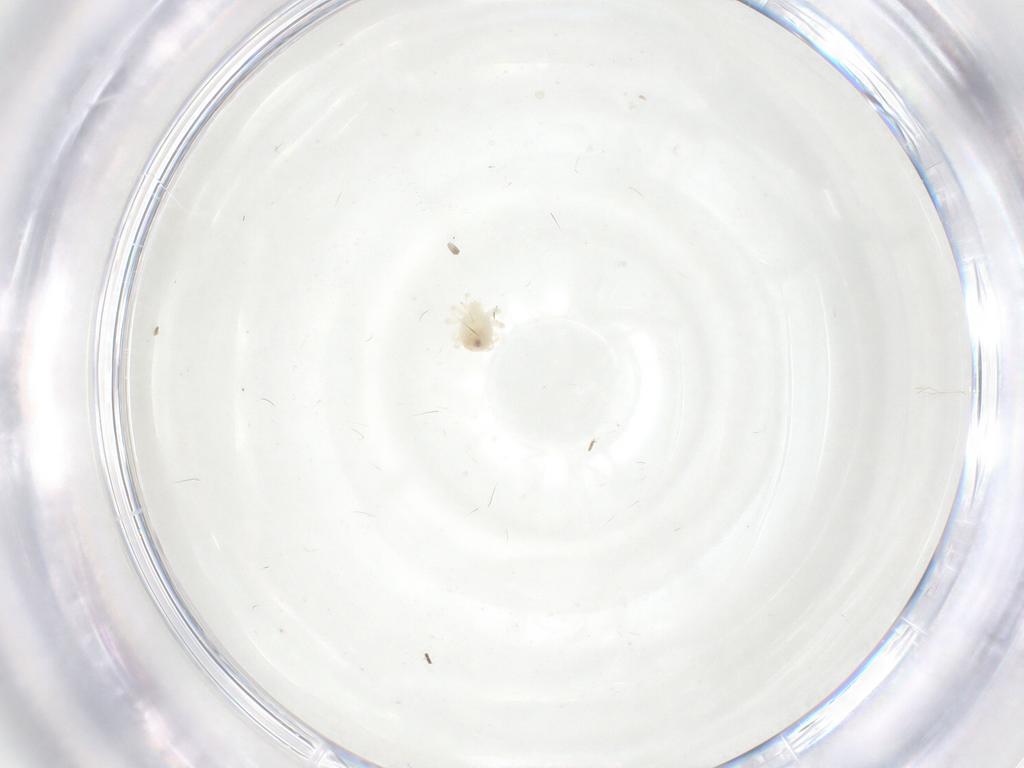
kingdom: Animalia
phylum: Arthropoda
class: Arachnida
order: Trombidiformes
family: Anystidae
